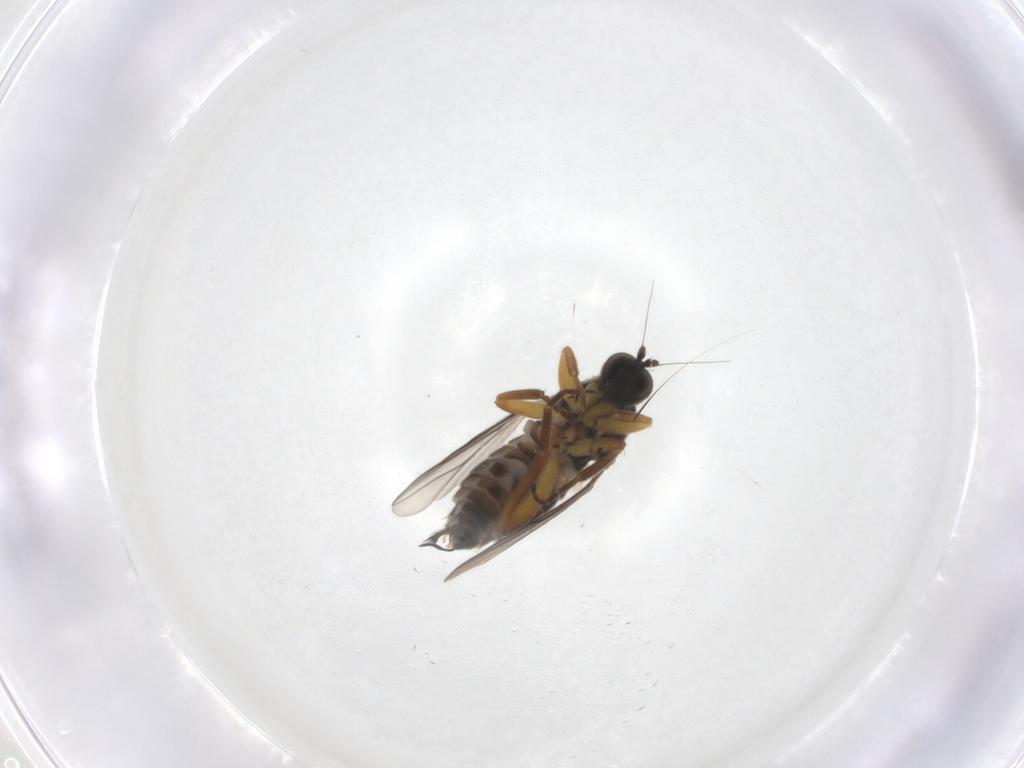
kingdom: Animalia
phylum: Arthropoda
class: Insecta
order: Diptera
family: Hybotidae
